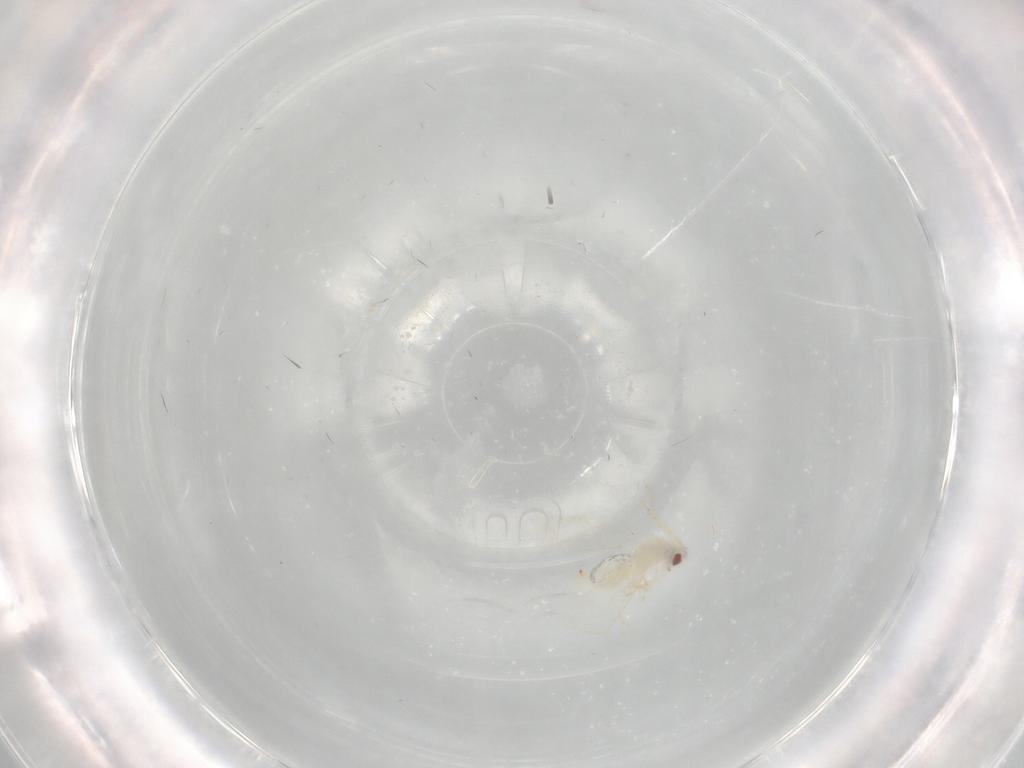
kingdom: Animalia
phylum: Arthropoda
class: Insecta
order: Hemiptera
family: Aleyrodidae
